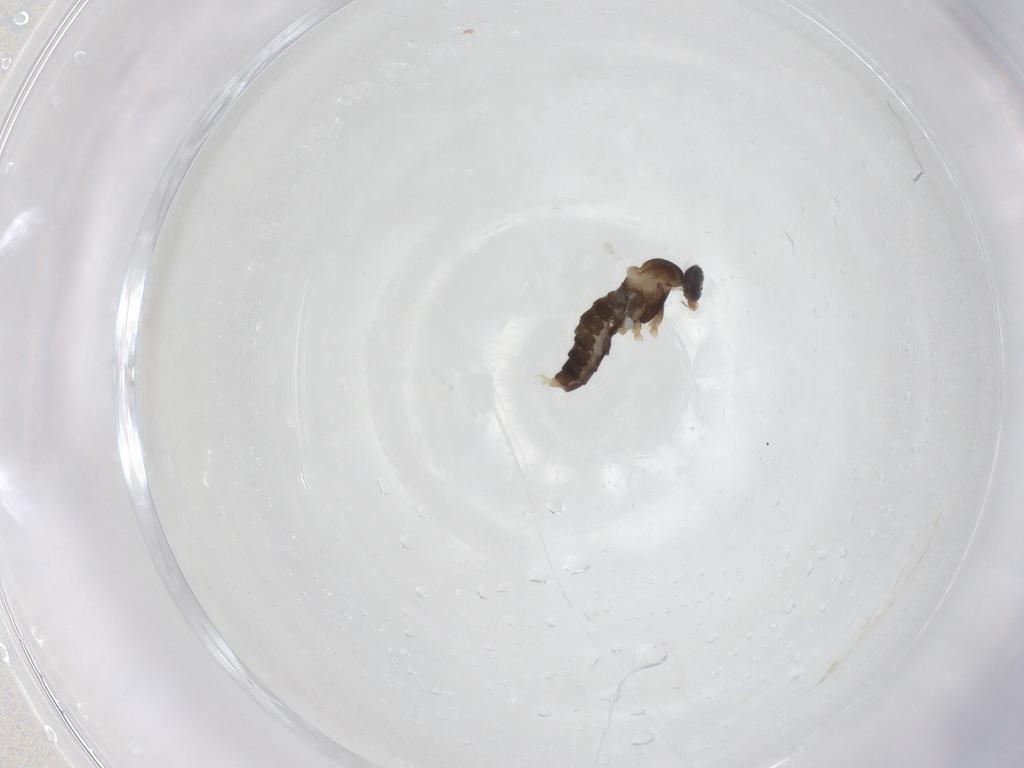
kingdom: Animalia
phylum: Arthropoda
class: Insecta
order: Diptera
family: Cecidomyiidae
